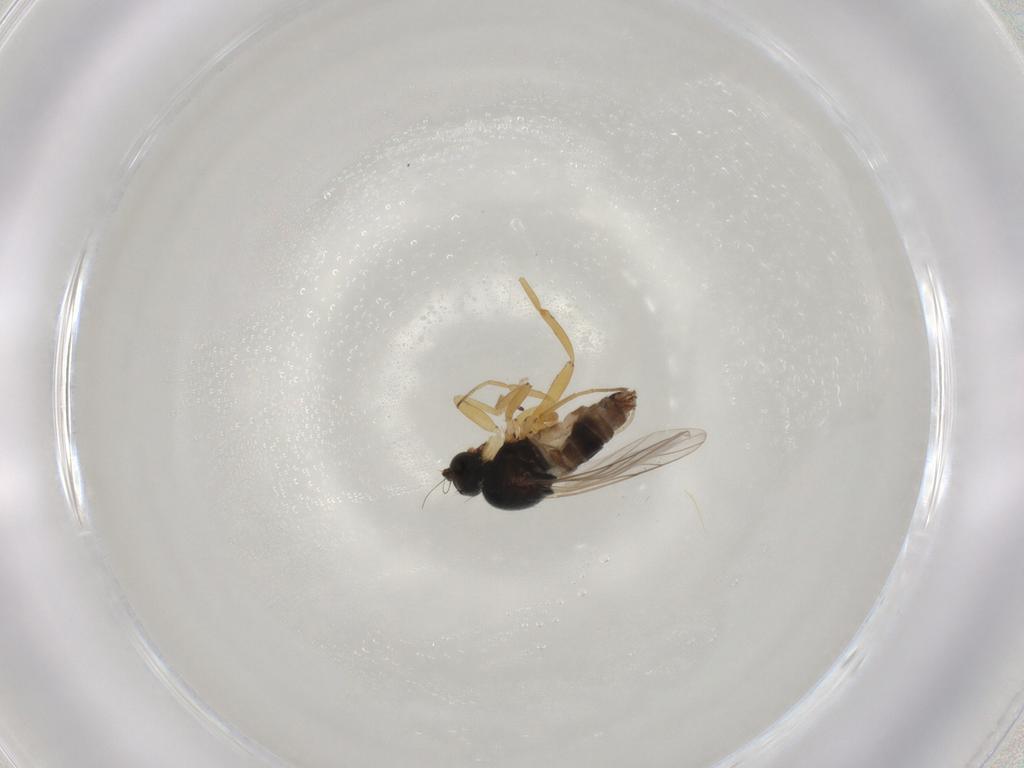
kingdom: Animalia
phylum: Arthropoda
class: Insecta
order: Diptera
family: Hybotidae
